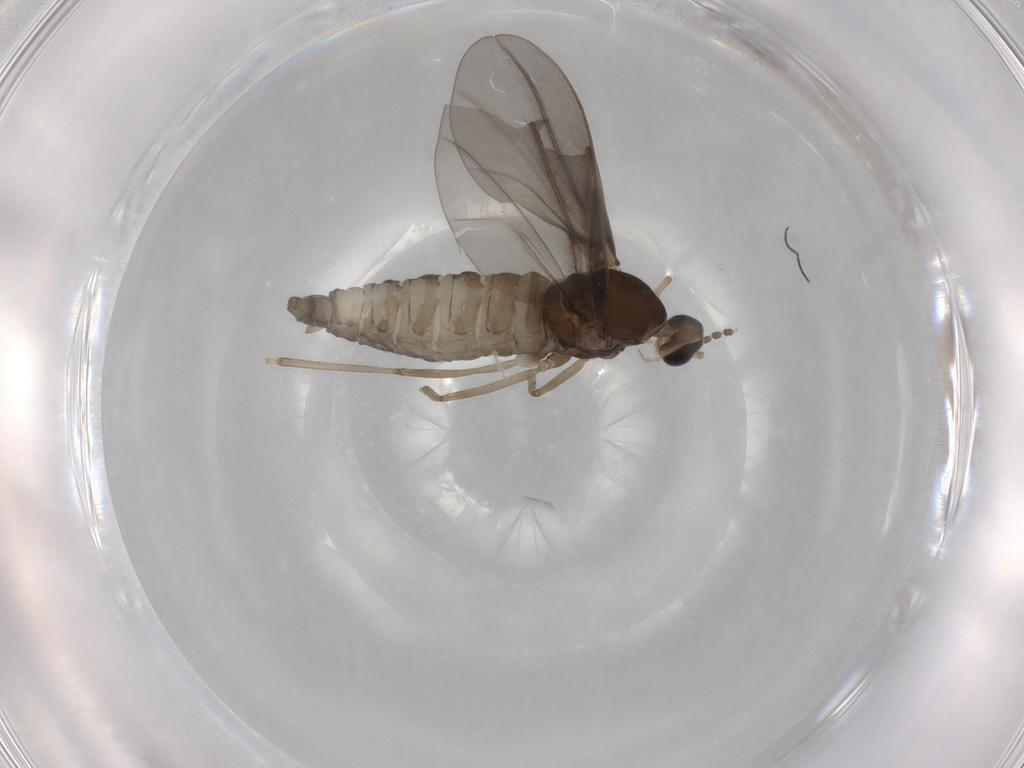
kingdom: Animalia
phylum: Arthropoda
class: Insecta
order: Diptera
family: Cecidomyiidae
